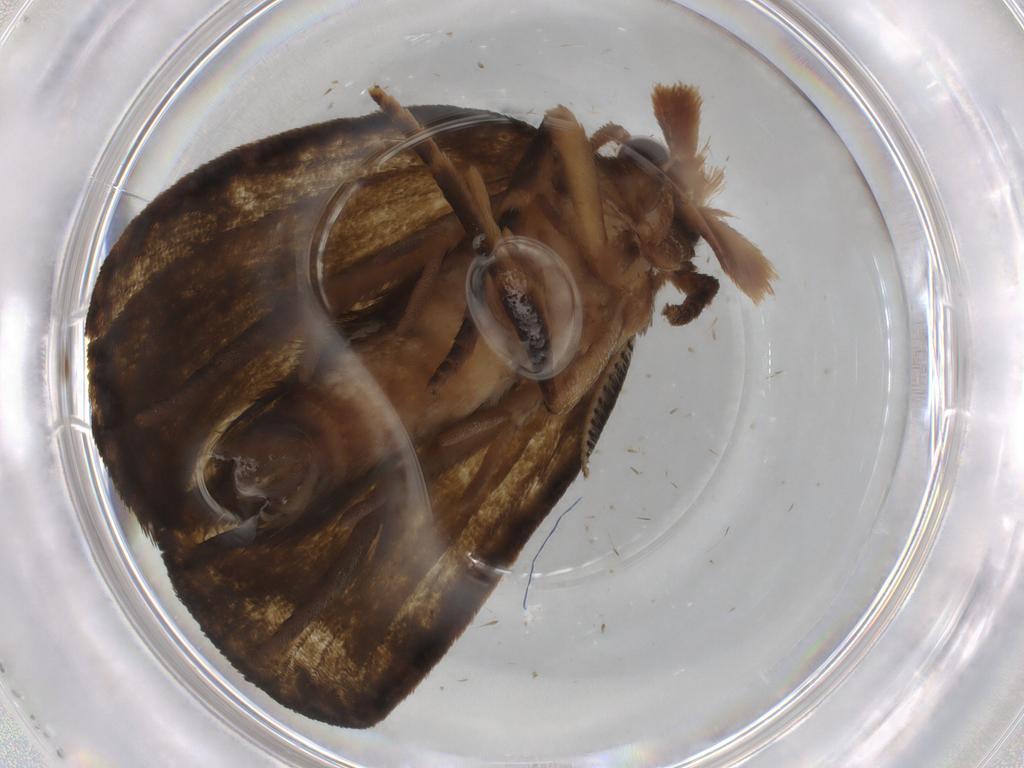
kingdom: Animalia
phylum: Arthropoda
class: Insecta
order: Lepidoptera
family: Geometridae
